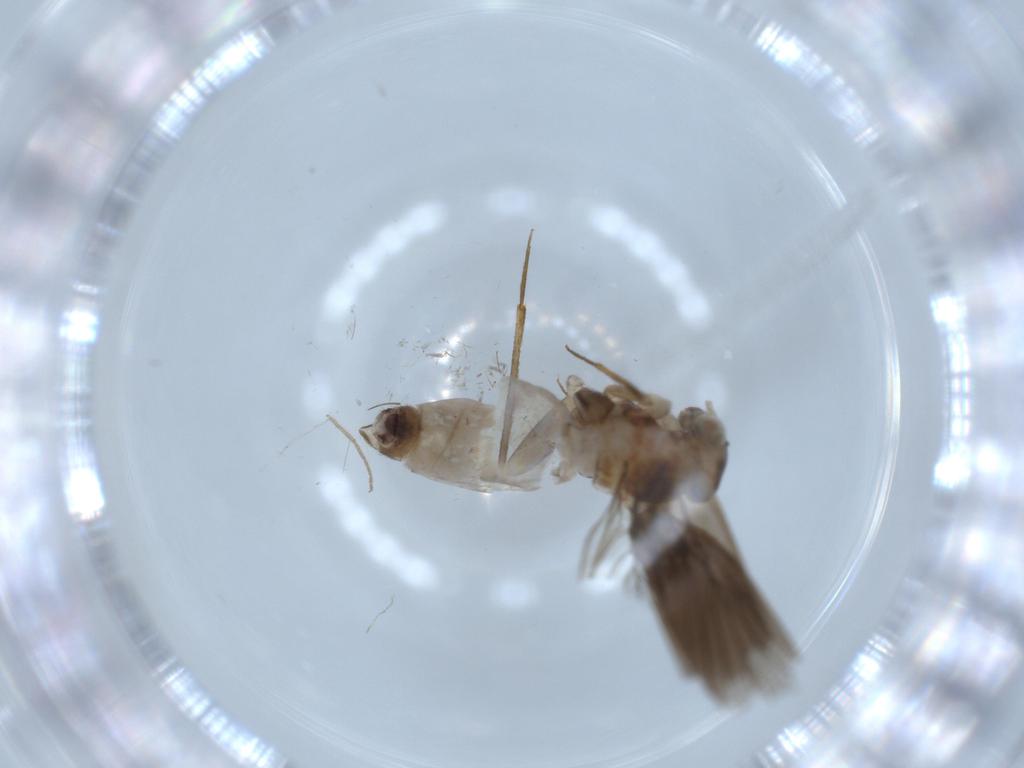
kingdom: Animalia
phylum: Arthropoda
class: Insecta
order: Psocodea
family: Lepidopsocidae
